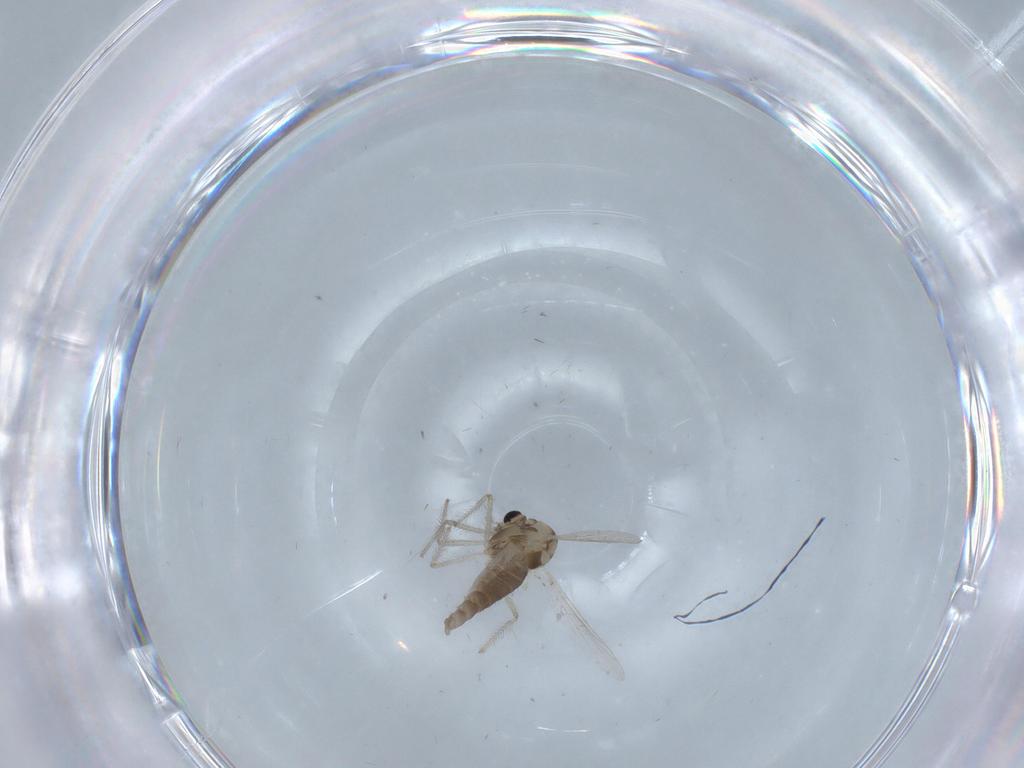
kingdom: Animalia
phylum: Arthropoda
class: Insecta
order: Diptera
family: Chironomidae
